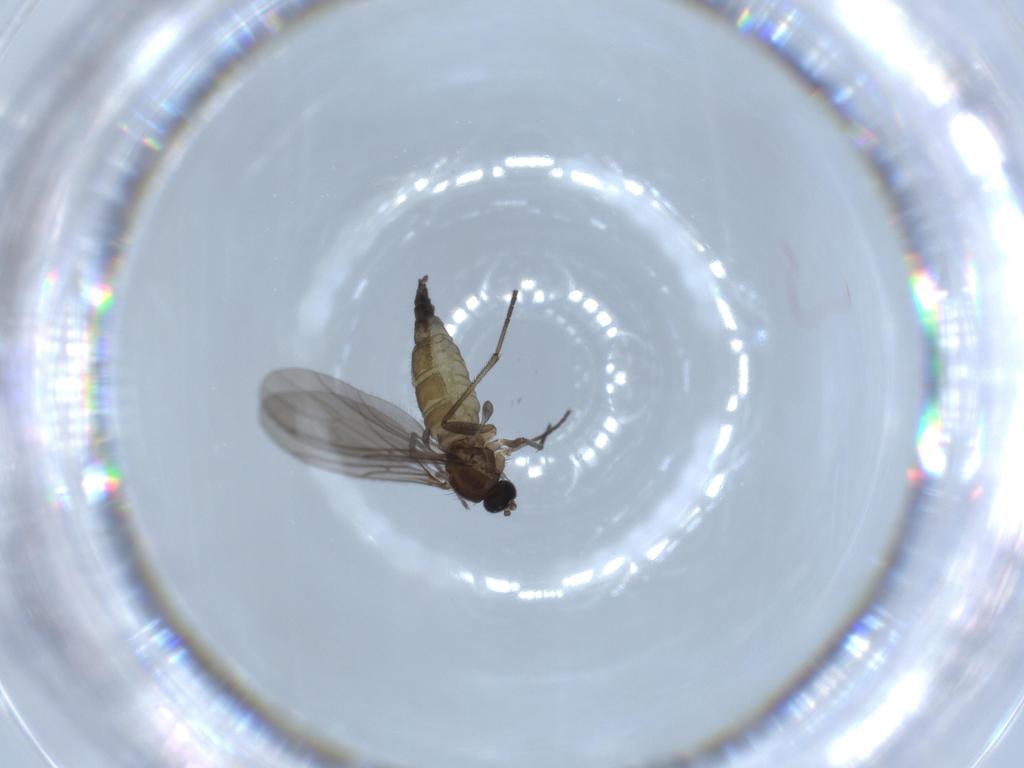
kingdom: Animalia
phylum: Arthropoda
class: Insecta
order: Diptera
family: Sciaridae
